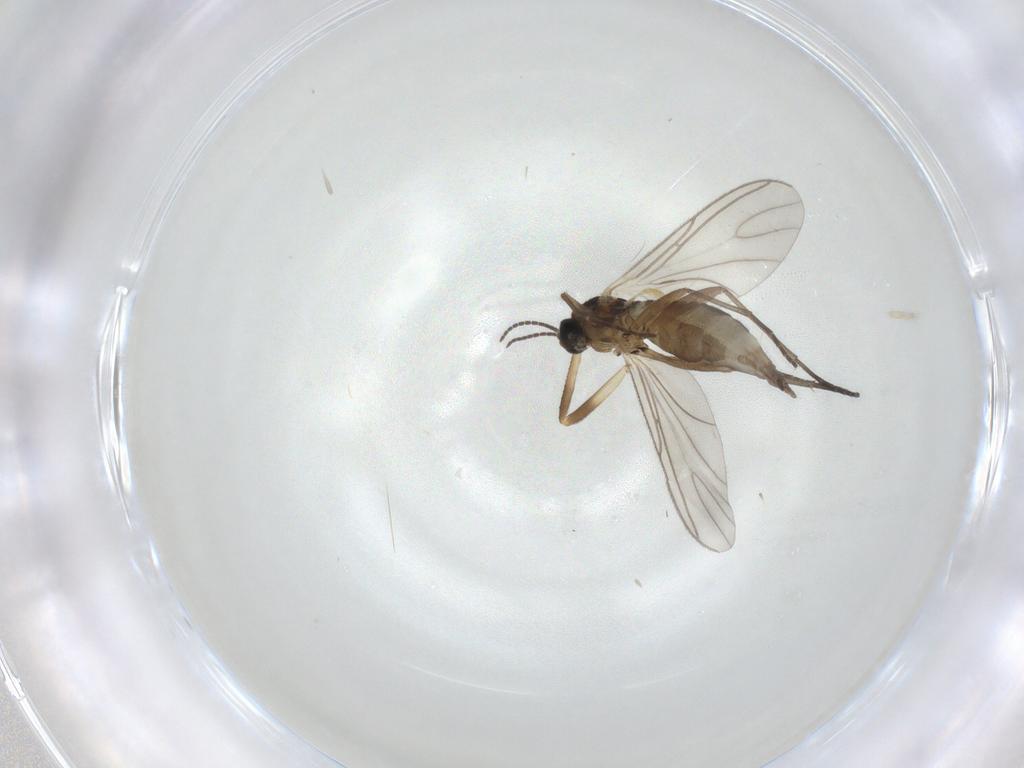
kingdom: Animalia
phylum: Arthropoda
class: Insecta
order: Diptera
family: Ceratopogonidae
